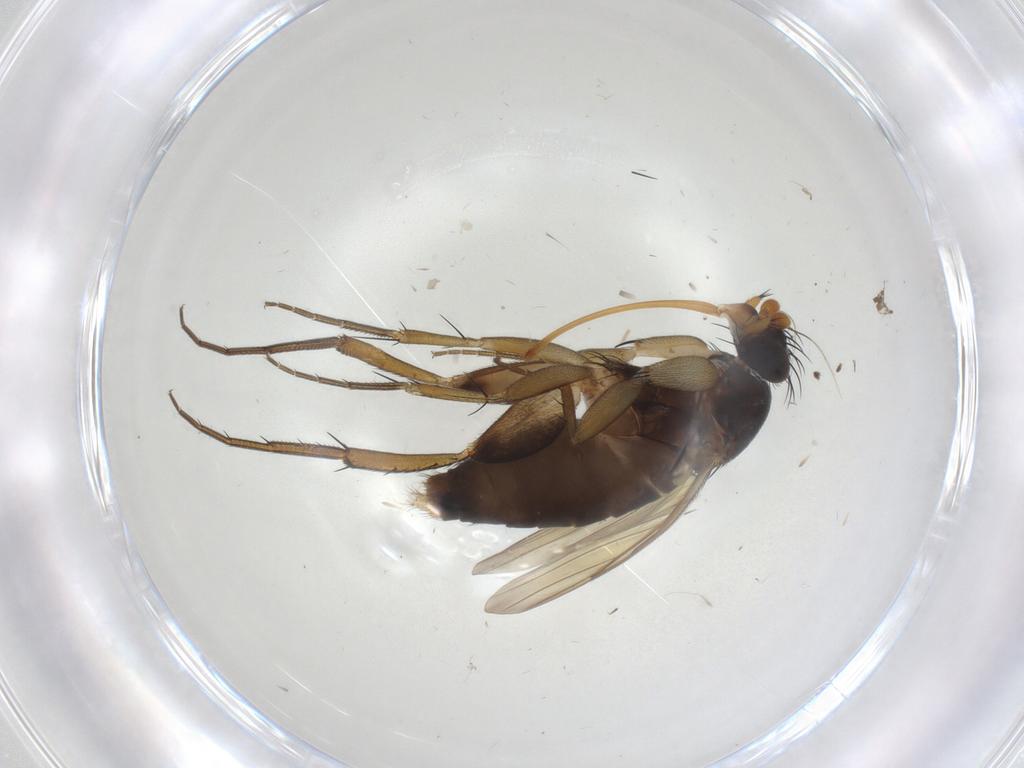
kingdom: Animalia
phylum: Arthropoda
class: Insecta
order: Diptera
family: Phoridae
